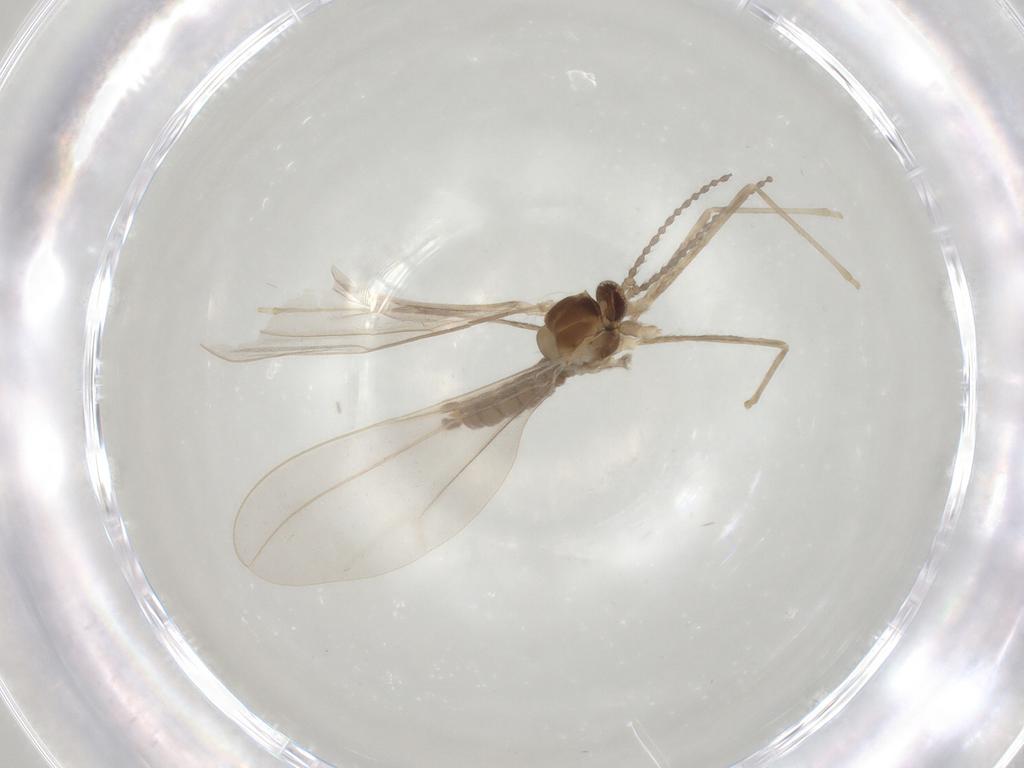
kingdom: Animalia
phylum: Arthropoda
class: Insecta
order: Diptera
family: Cecidomyiidae
